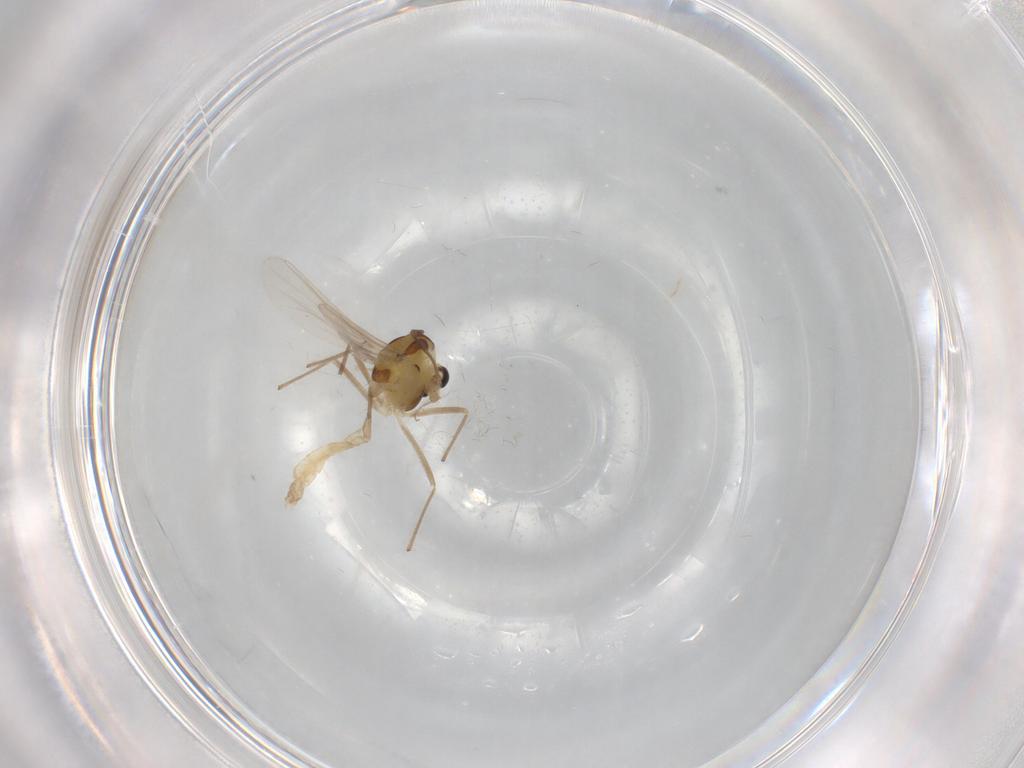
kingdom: Animalia
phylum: Arthropoda
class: Insecta
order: Diptera
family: Chironomidae
